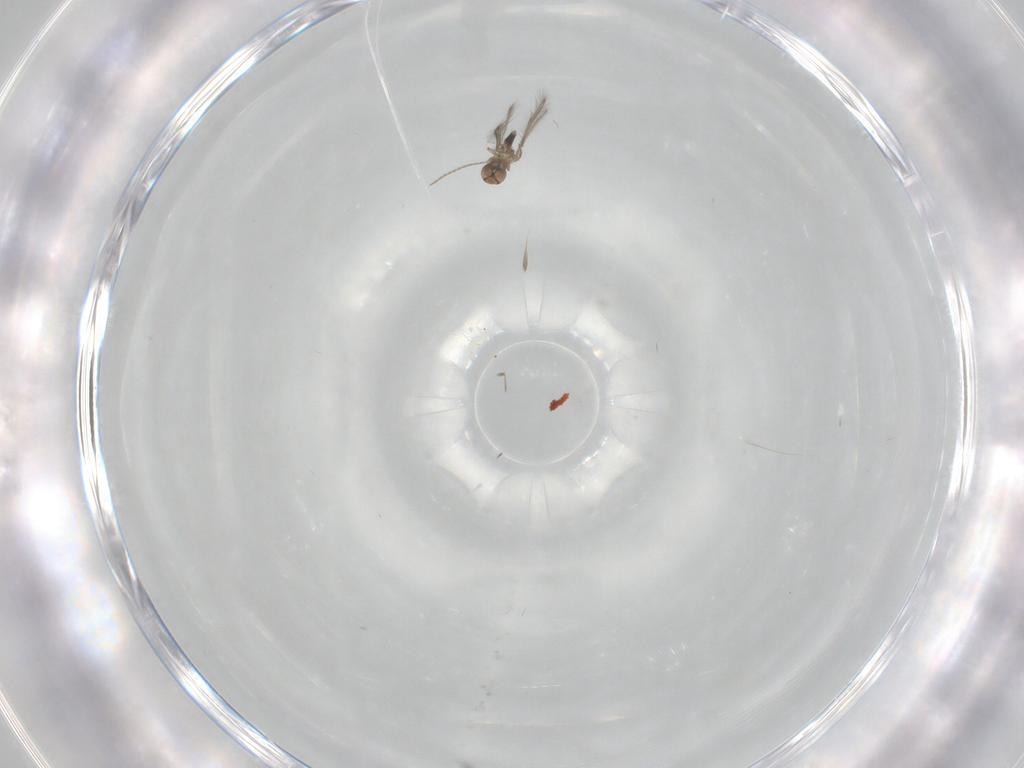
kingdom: Animalia
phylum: Arthropoda
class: Insecta
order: Hymenoptera
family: Mymaridae
